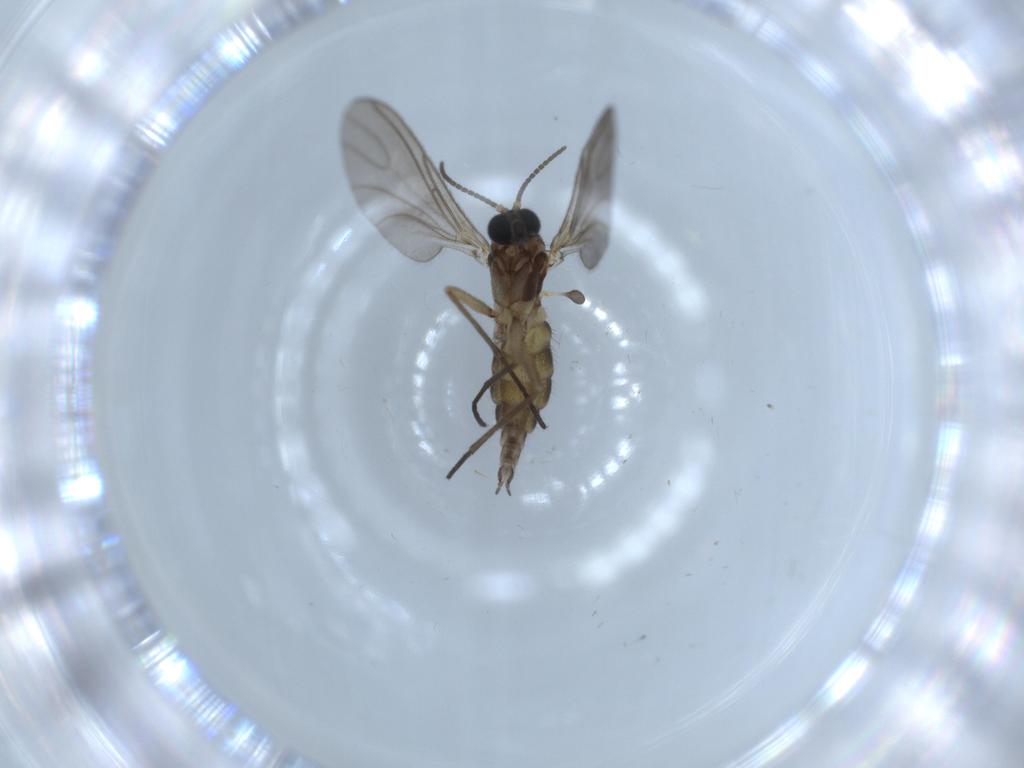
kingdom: Animalia
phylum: Arthropoda
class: Insecta
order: Diptera
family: Sciaridae
